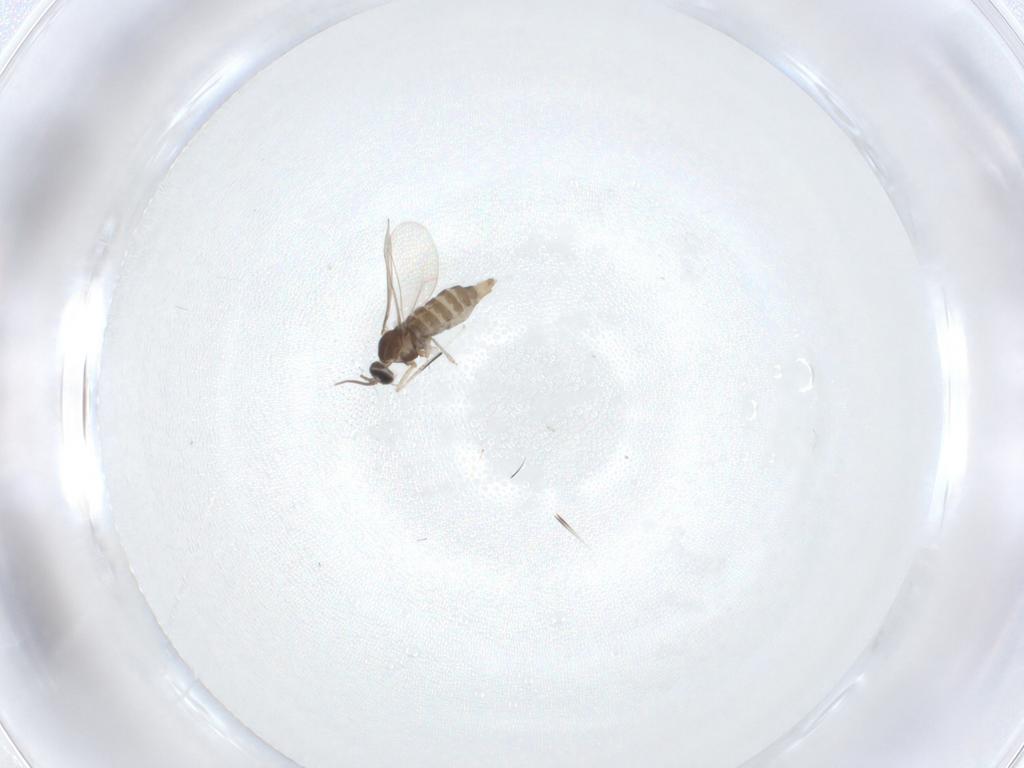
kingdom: Animalia
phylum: Arthropoda
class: Insecta
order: Diptera
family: Cecidomyiidae
